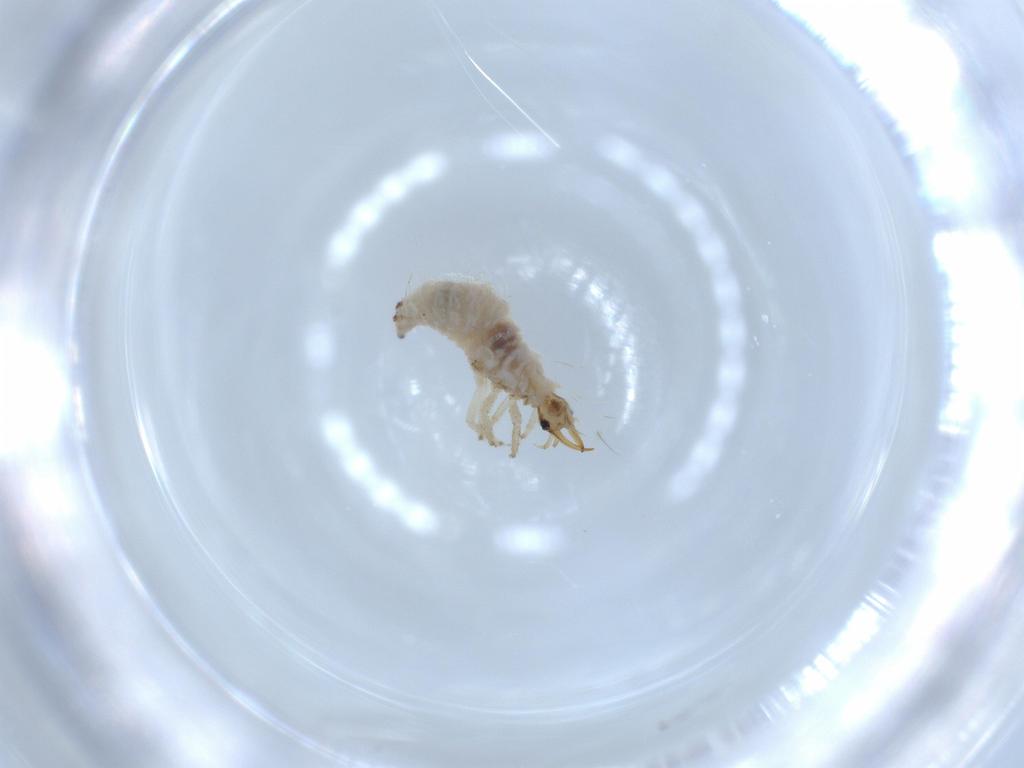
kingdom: Animalia
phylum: Arthropoda
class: Insecta
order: Neuroptera
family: Chrysopidae
